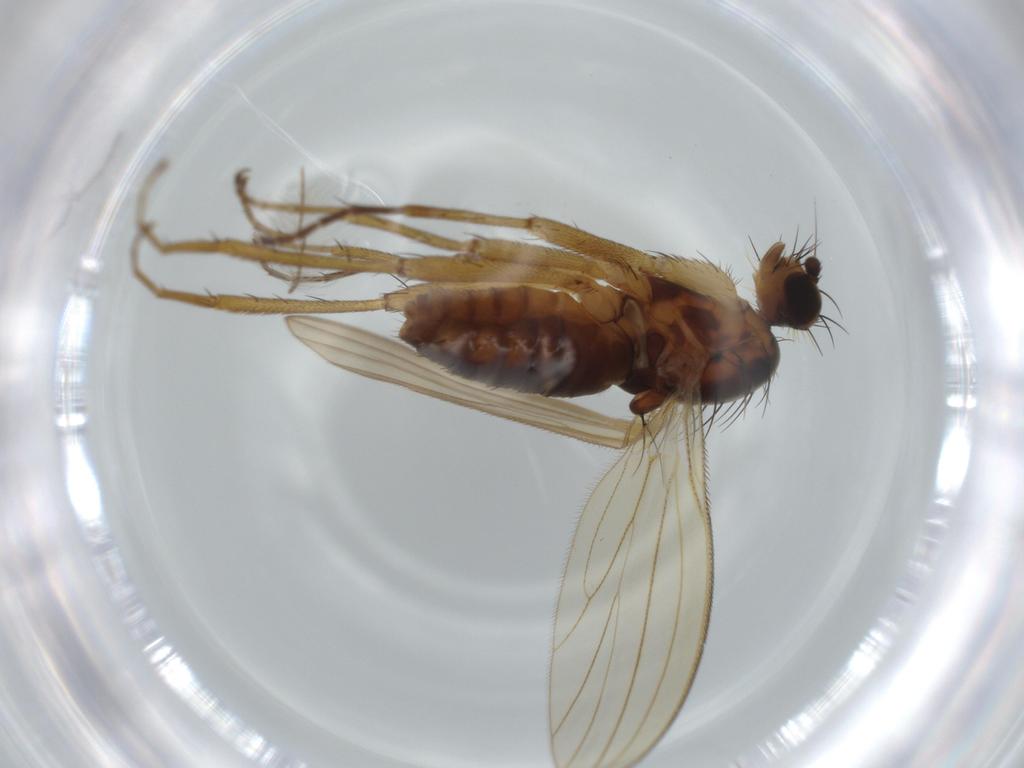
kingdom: Animalia
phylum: Arthropoda
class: Insecta
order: Diptera
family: Lonchopteridae
